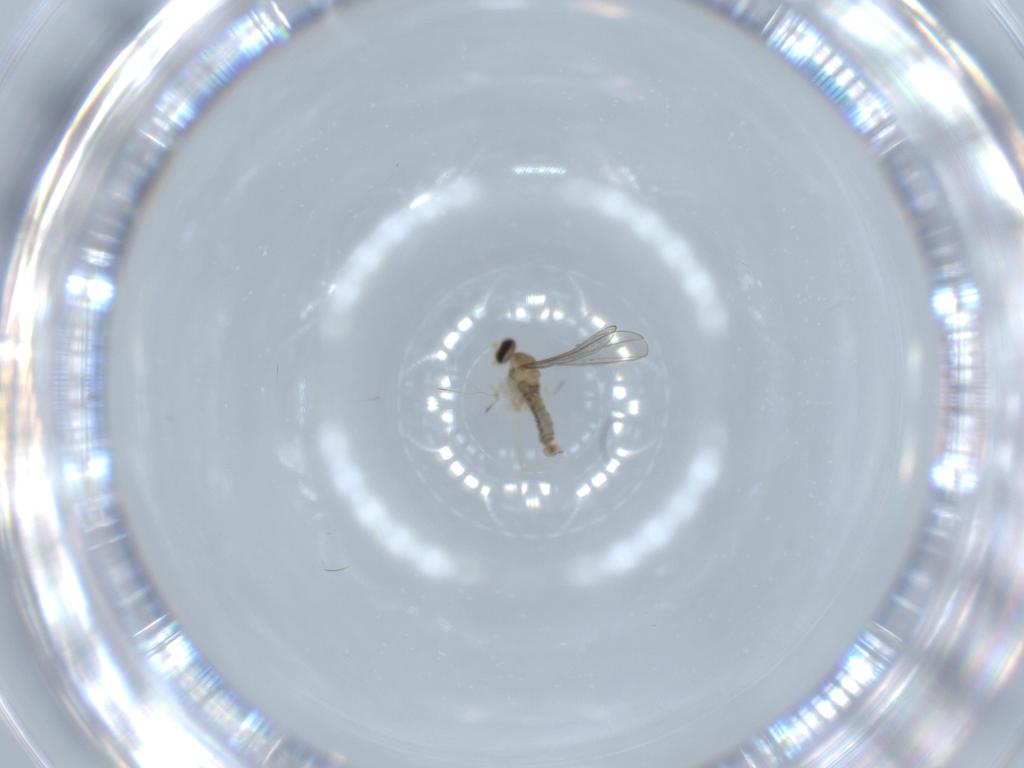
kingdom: Animalia
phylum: Arthropoda
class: Insecta
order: Diptera
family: Cecidomyiidae
